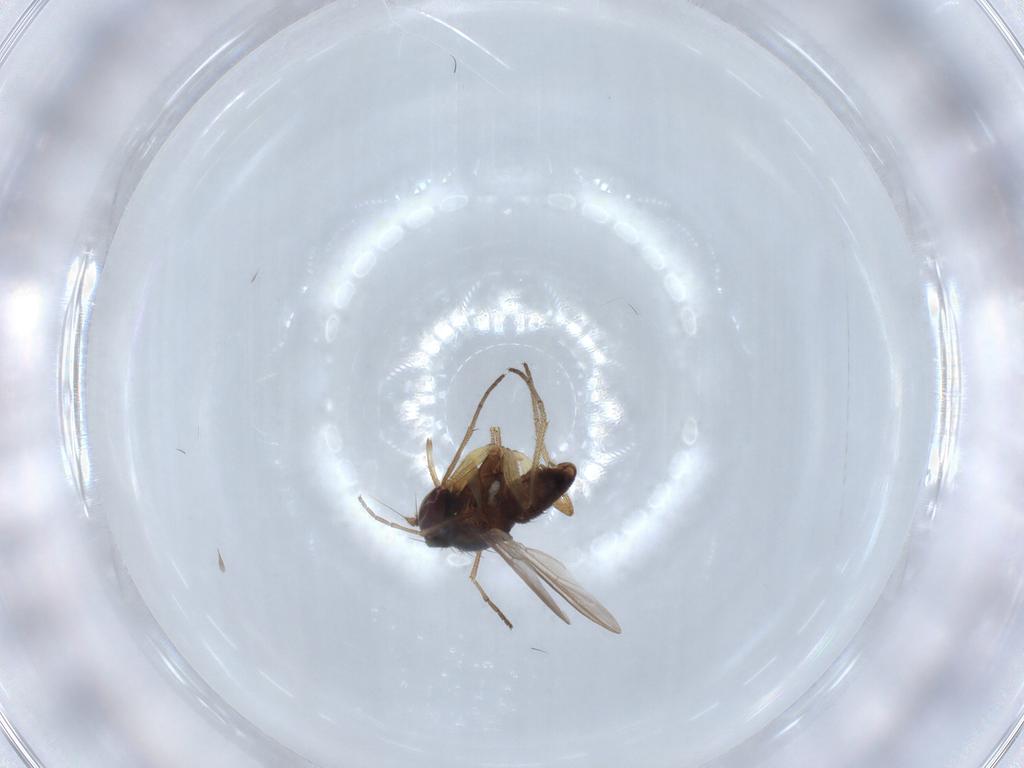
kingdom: Animalia
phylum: Arthropoda
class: Insecta
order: Diptera
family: Dolichopodidae
